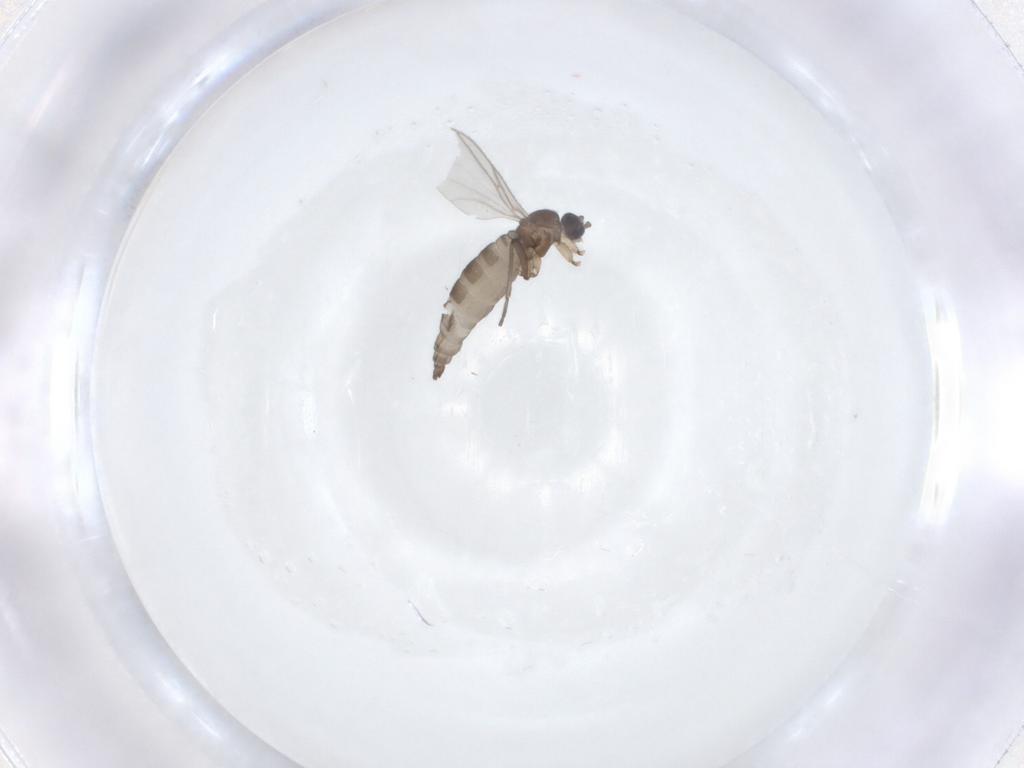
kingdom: Animalia
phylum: Arthropoda
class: Insecta
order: Diptera
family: Sciaridae
